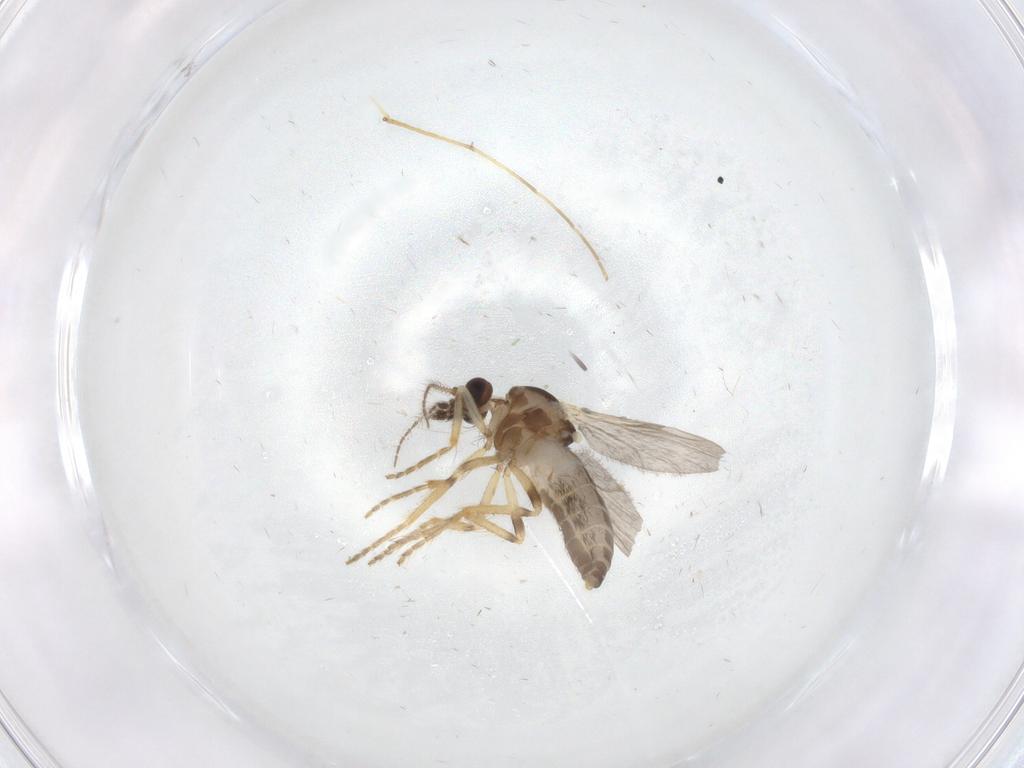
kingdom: Animalia
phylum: Arthropoda
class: Insecta
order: Diptera
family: Ceratopogonidae
